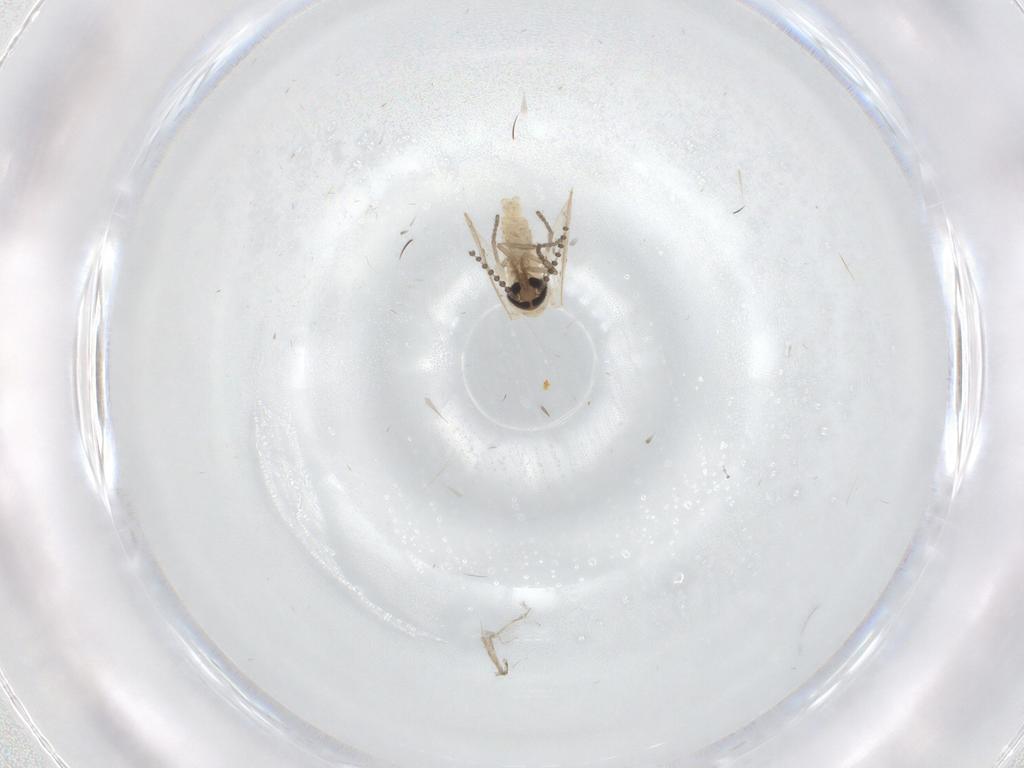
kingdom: Animalia
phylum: Arthropoda
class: Insecta
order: Diptera
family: Psychodidae
